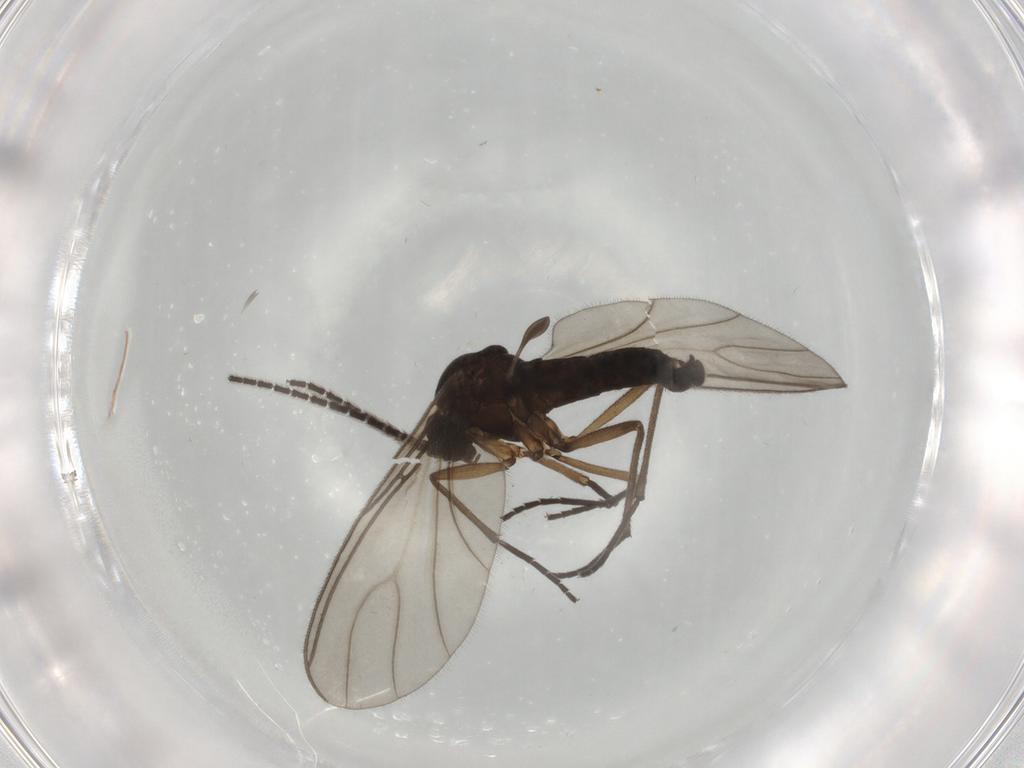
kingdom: Animalia
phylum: Arthropoda
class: Insecta
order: Diptera
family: Sciaridae
